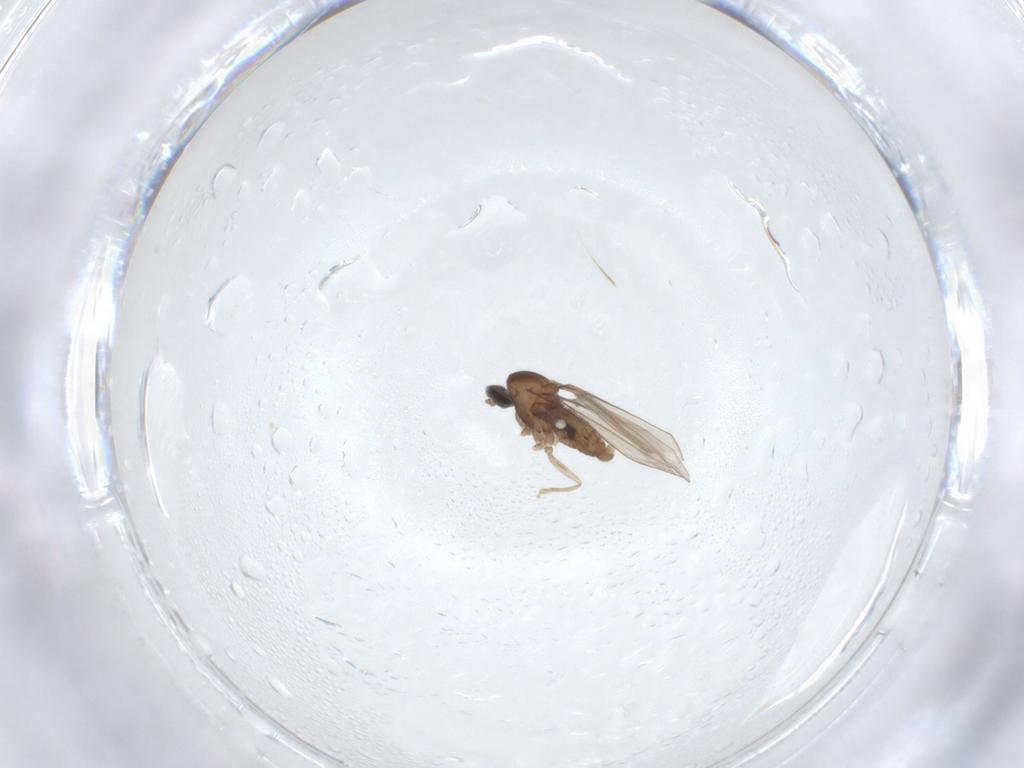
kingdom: Animalia
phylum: Arthropoda
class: Insecta
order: Diptera
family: Cecidomyiidae
